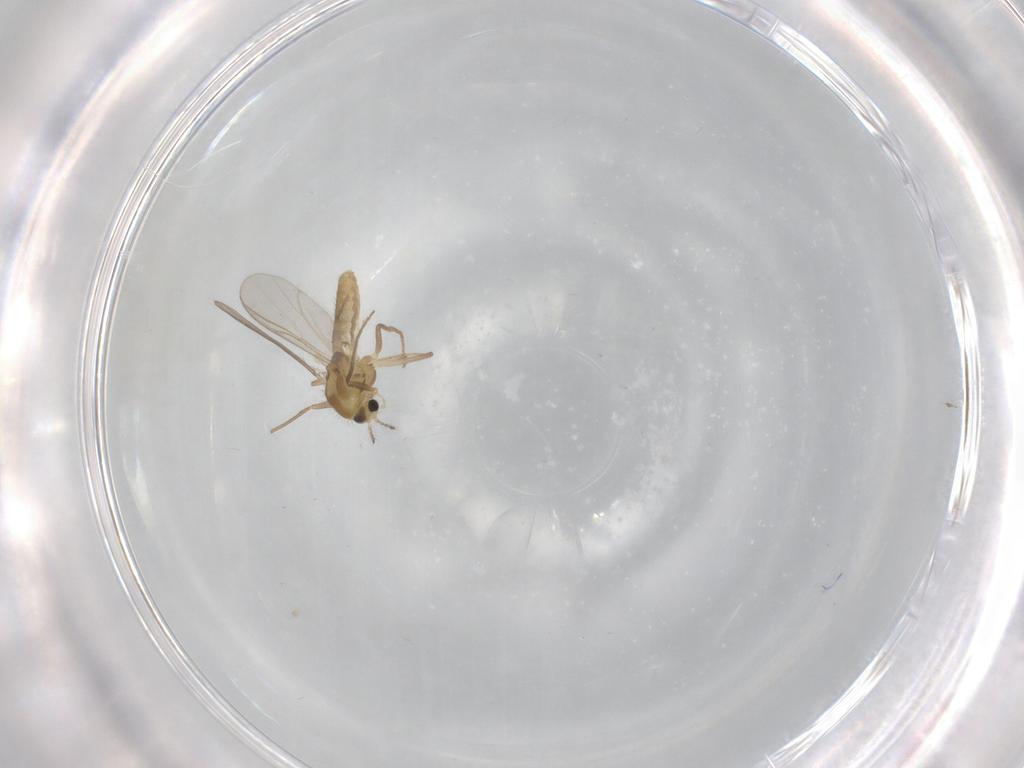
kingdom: Animalia
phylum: Arthropoda
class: Insecta
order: Diptera
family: Chironomidae
